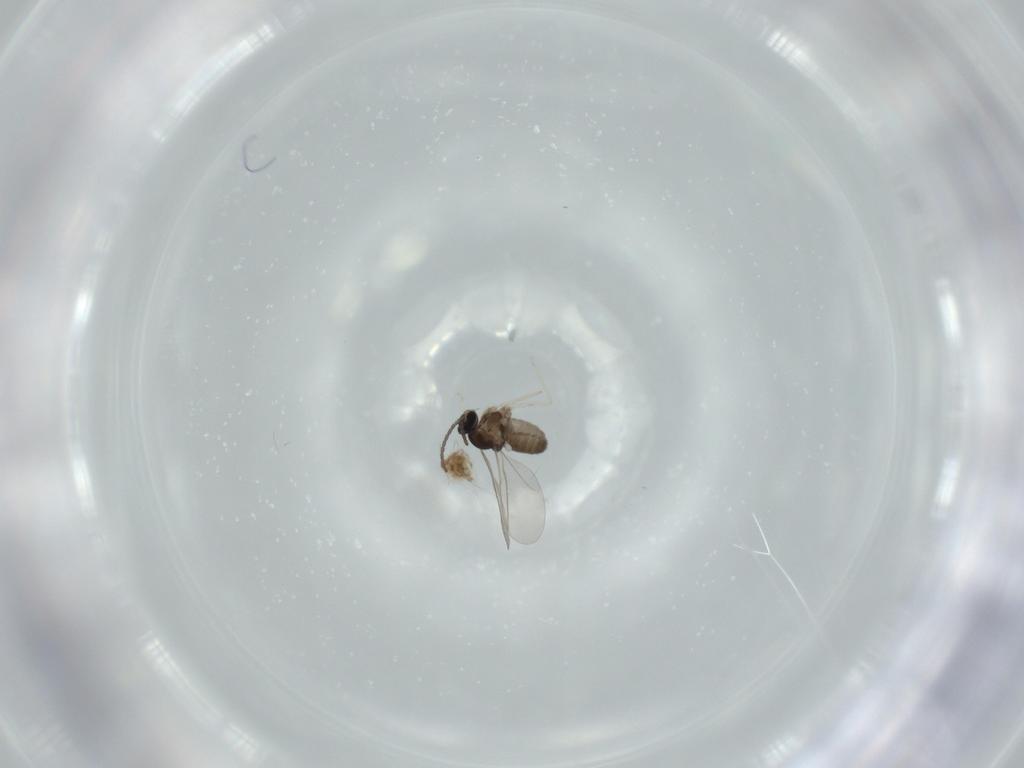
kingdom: Animalia
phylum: Arthropoda
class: Insecta
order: Diptera
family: Cecidomyiidae
